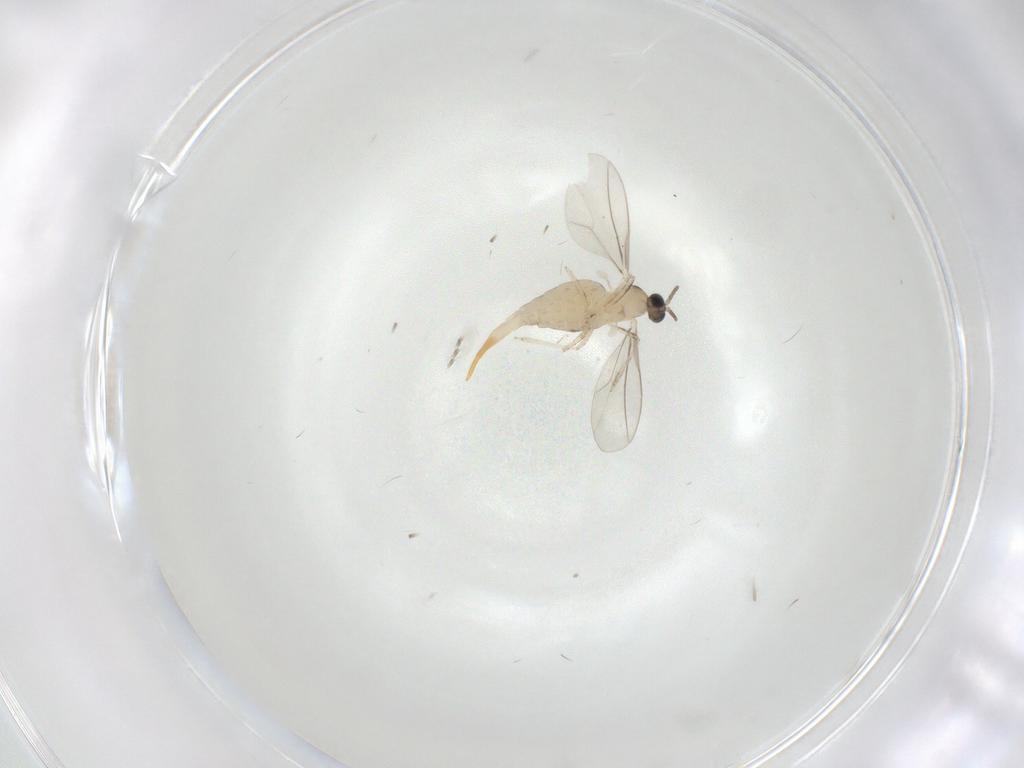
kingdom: Animalia
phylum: Arthropoda
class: Insecta
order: Diptera
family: Cecidomyiidae
